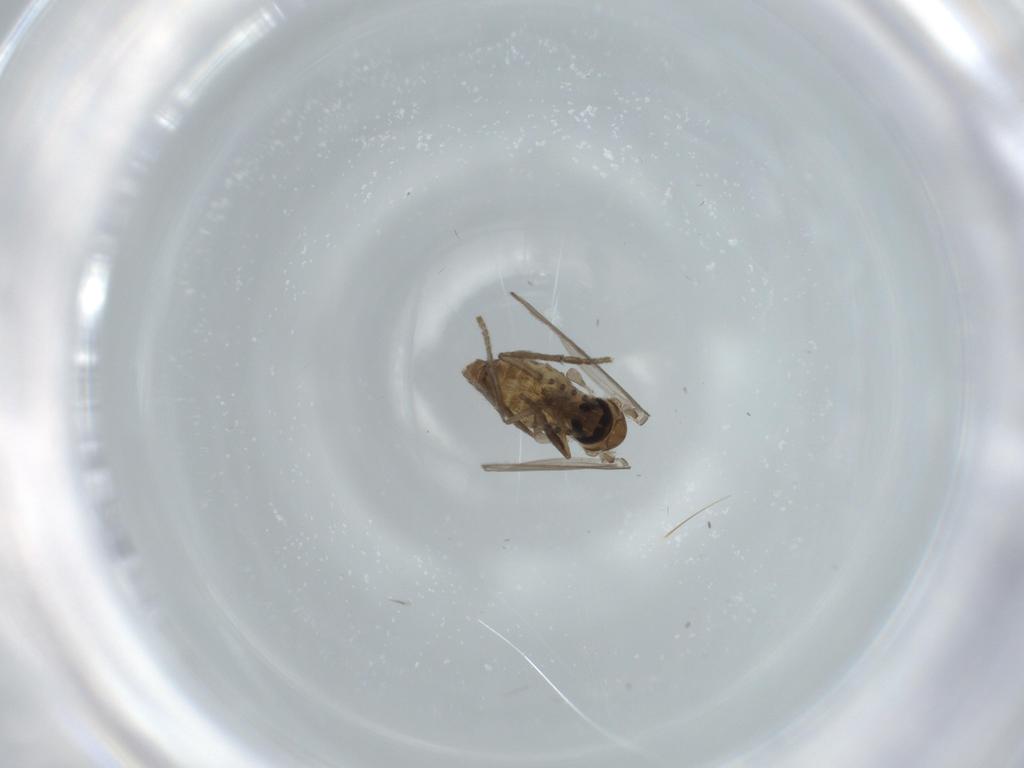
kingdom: Animalia
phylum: Arthropoda
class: Insecta
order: Diptera
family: Psychodidae
